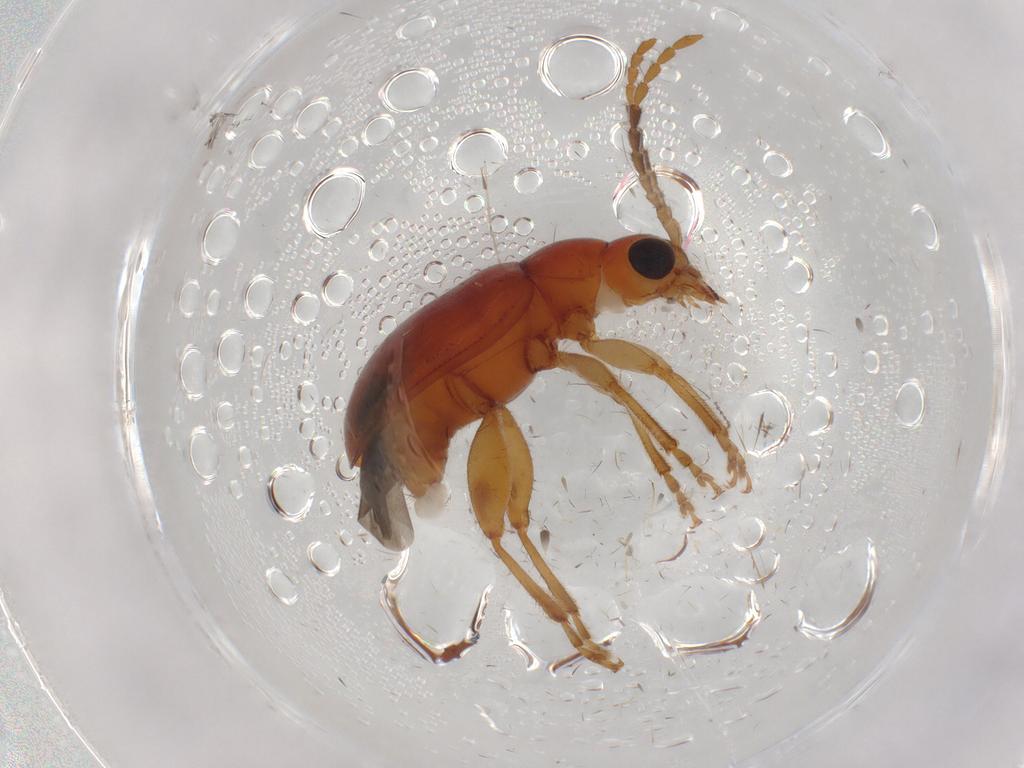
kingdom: Animalia
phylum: Arthropoda
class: Insecta
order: Coleoptera
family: Chrysomelidae
